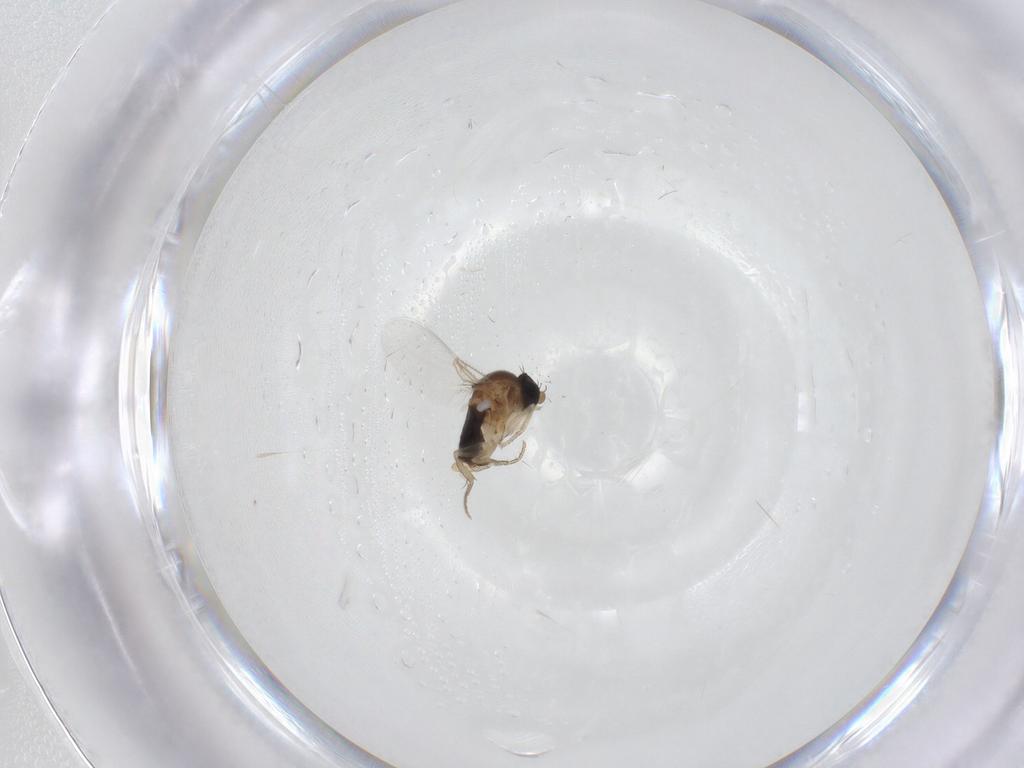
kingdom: Animalia
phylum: Arthropoda
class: Insecta
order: Diptera
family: Phoridae
